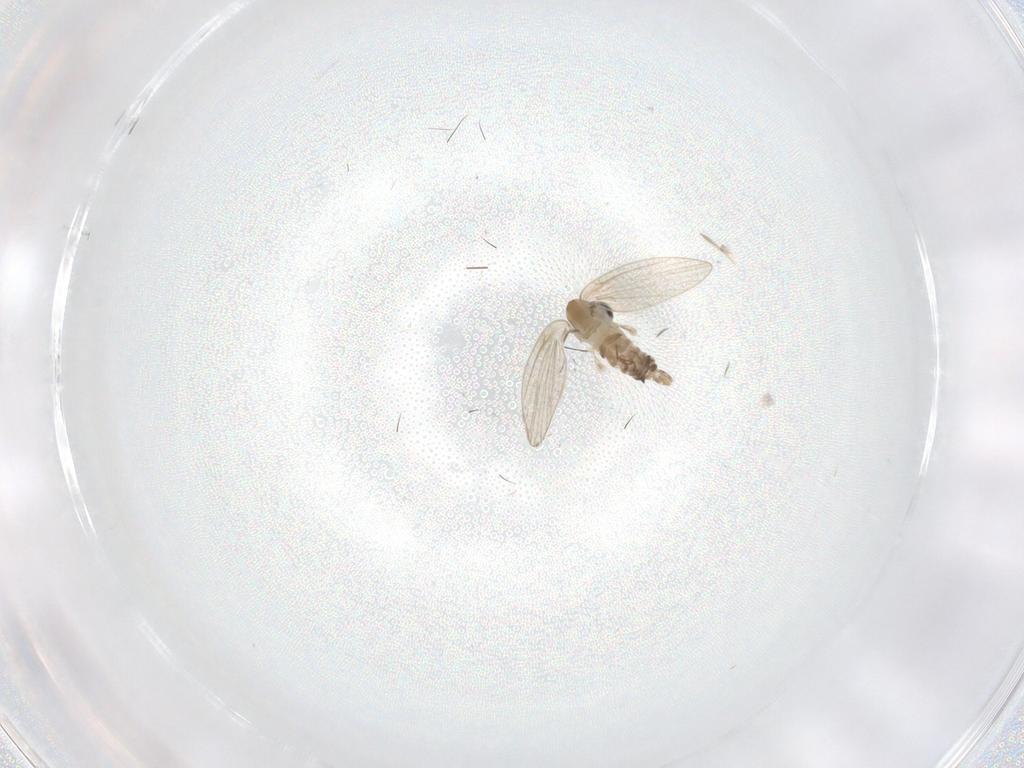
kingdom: Animalia
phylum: Arthropoda
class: Insecta
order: Diptera
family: Psychodidae
